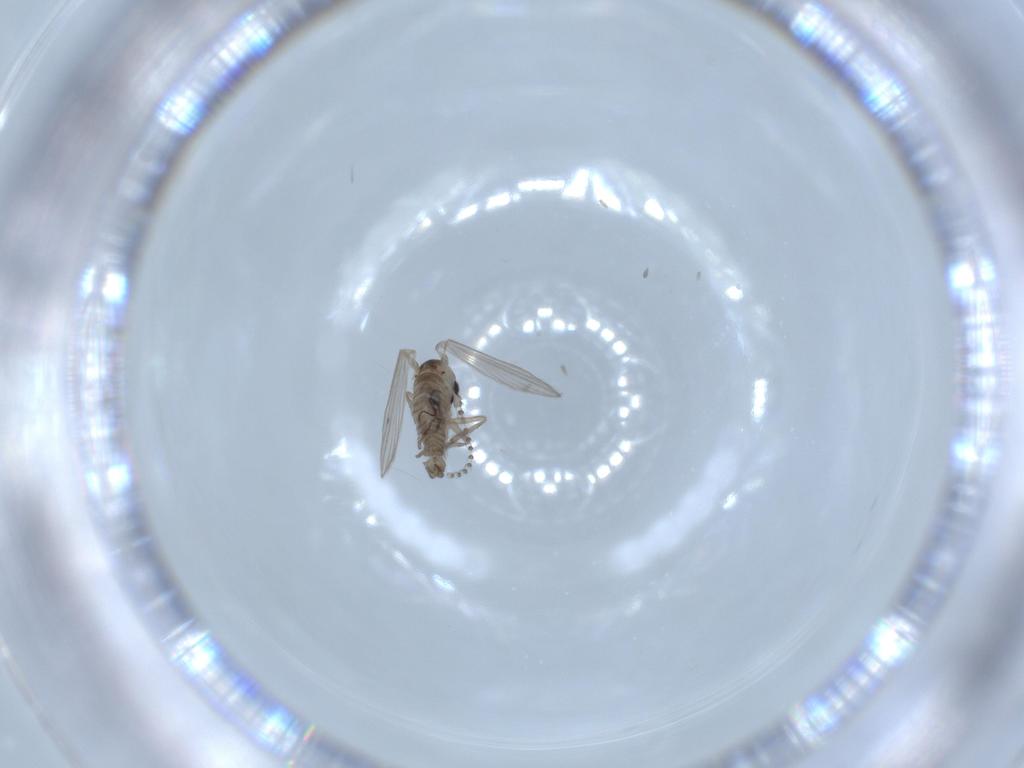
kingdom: Animalia
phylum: Arthropoda
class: Insecta
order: Diptera
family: Psychodidae
